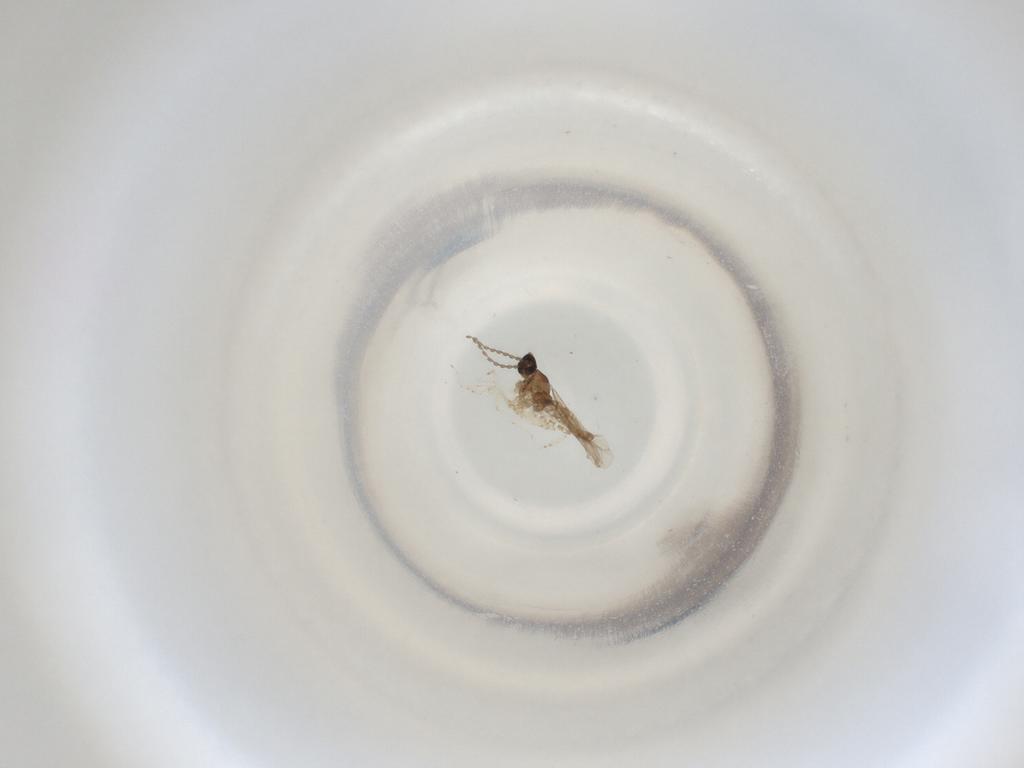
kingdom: Animalia
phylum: Arthropoda
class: Insecta
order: Diptera
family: Cecidomyiidae
